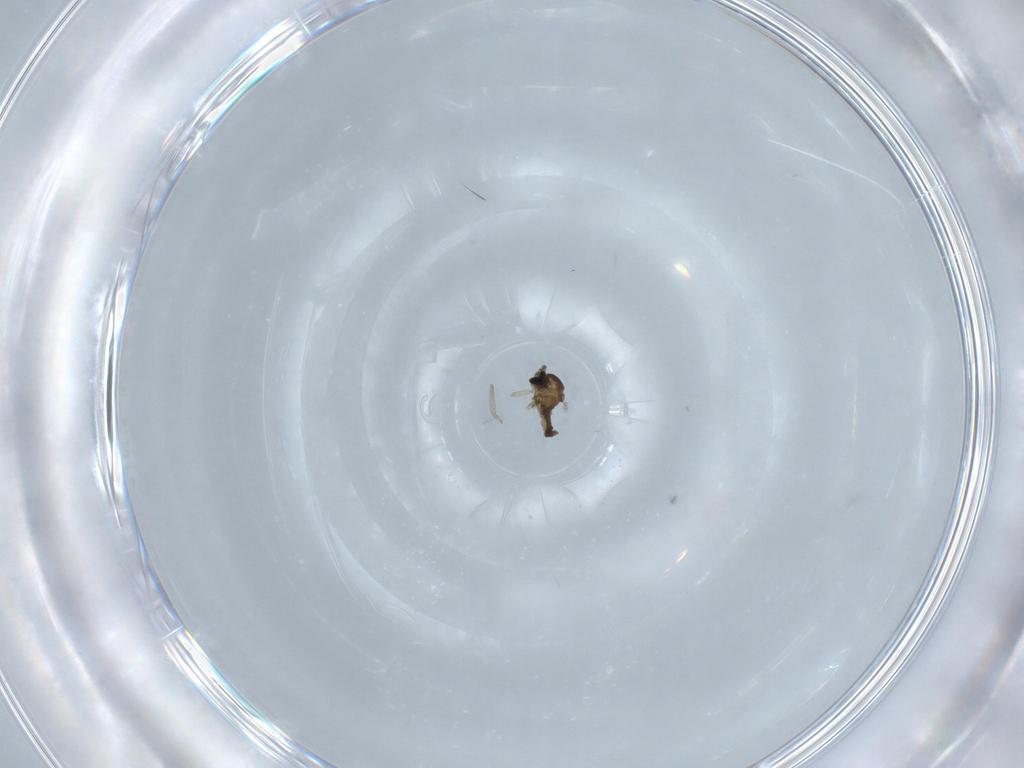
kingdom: Animalia
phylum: Arthropoda
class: Insecta
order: Diptera
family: Cecidomyiidae
